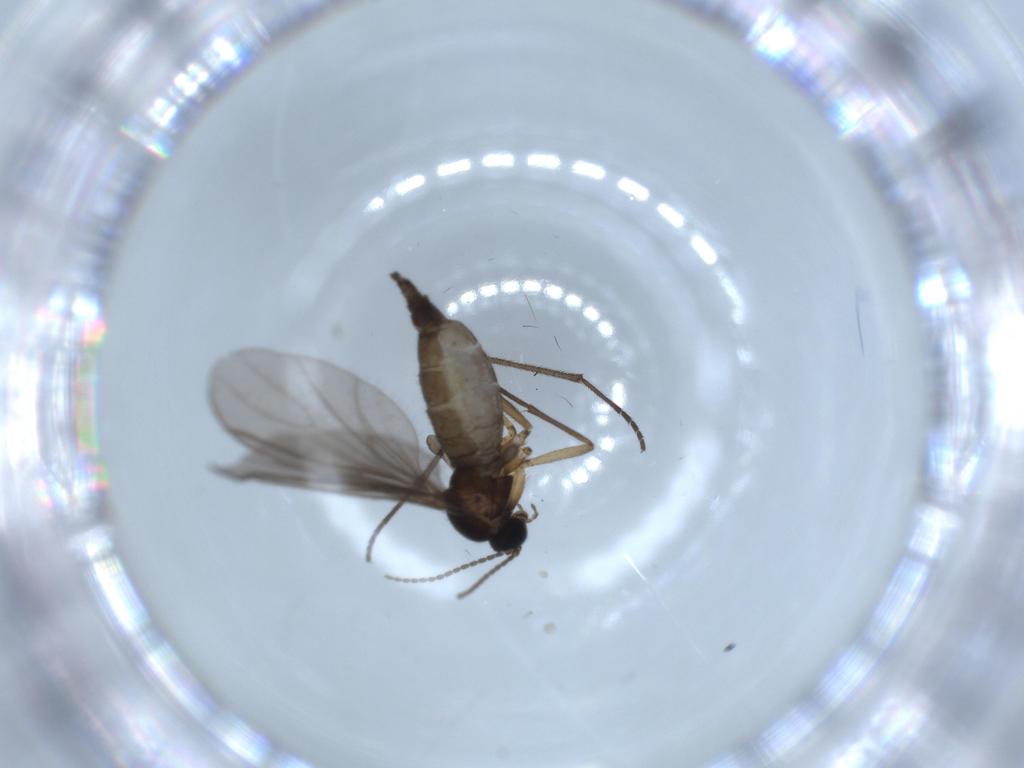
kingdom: Animalia
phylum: Arthropoda
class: Insecta
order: Diptera
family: Sciaridae
